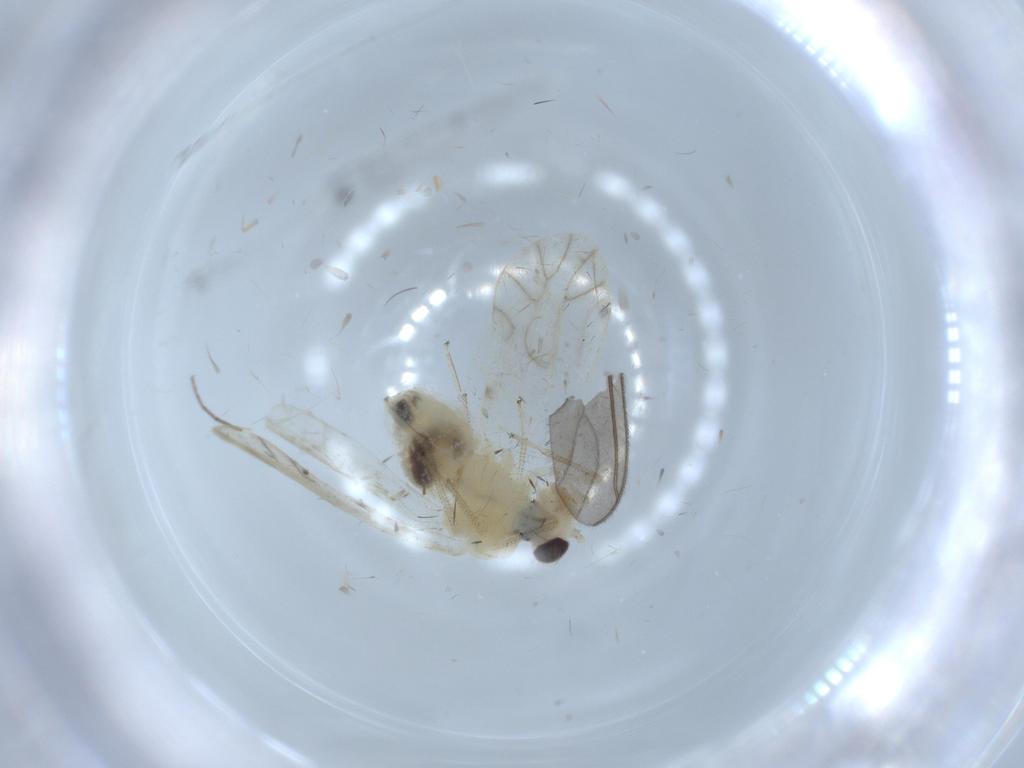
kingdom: Animalia
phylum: Arthropoda
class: Insecta
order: Psocodea
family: Caeciliusidae
